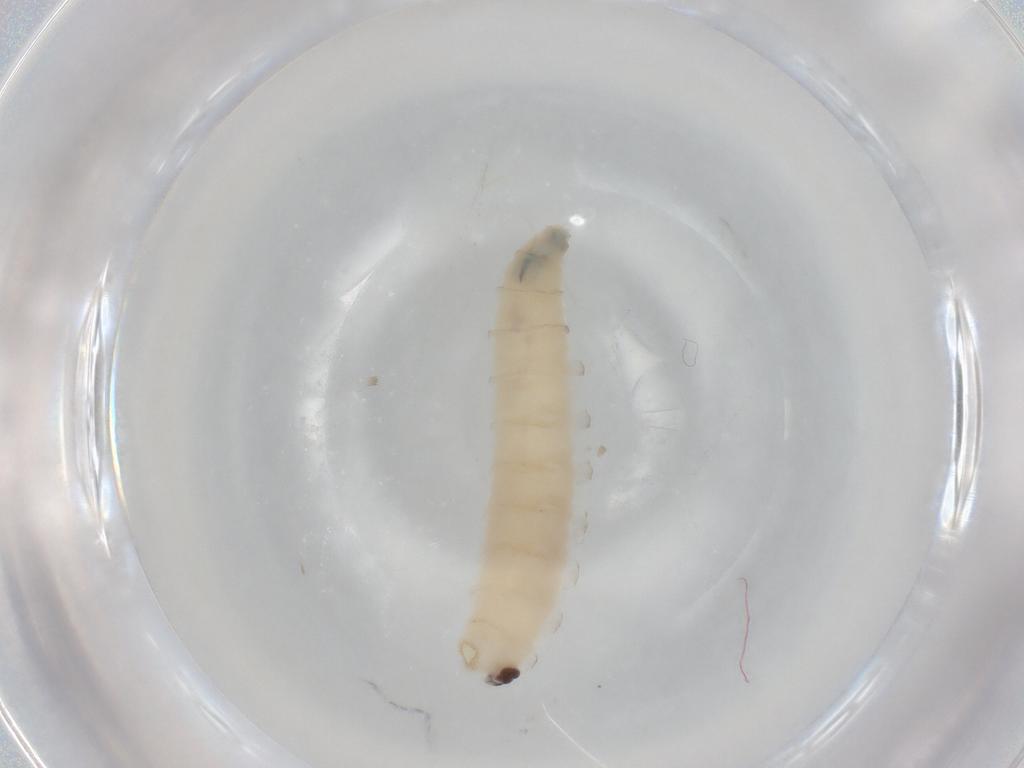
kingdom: Animalia
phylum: Arthropoda
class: Insecta
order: Diptera
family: Sarcophagidae
